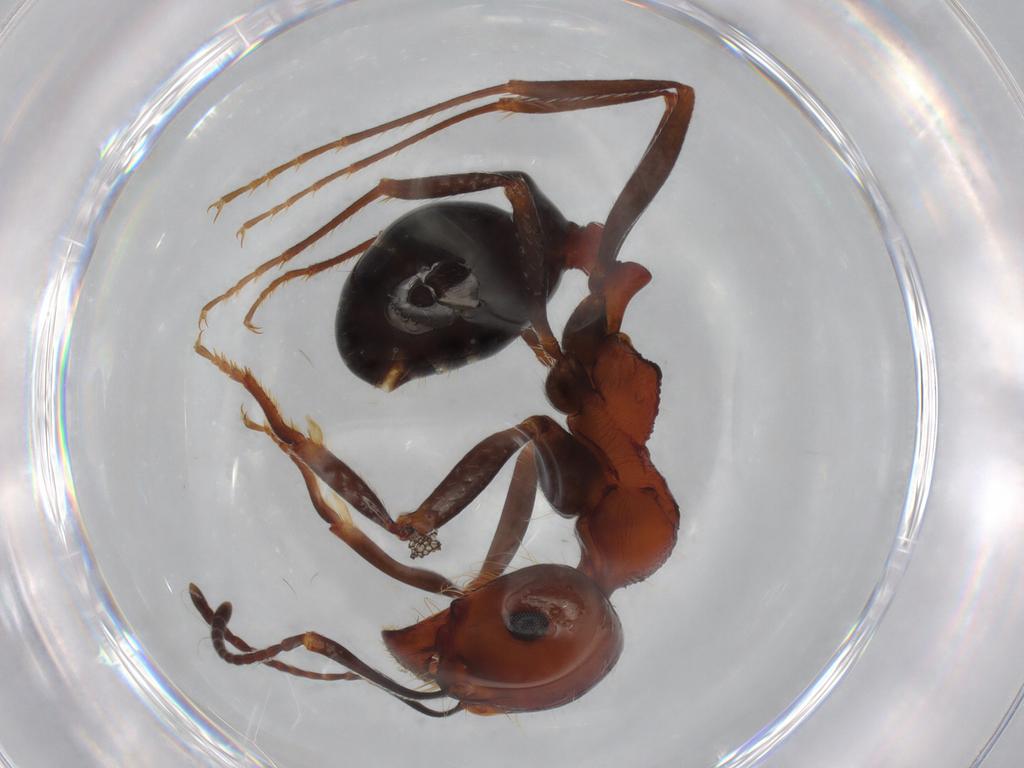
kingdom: Animalia
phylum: Arthropoda
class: Insecta
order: Hymenoptera
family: Formicidae
